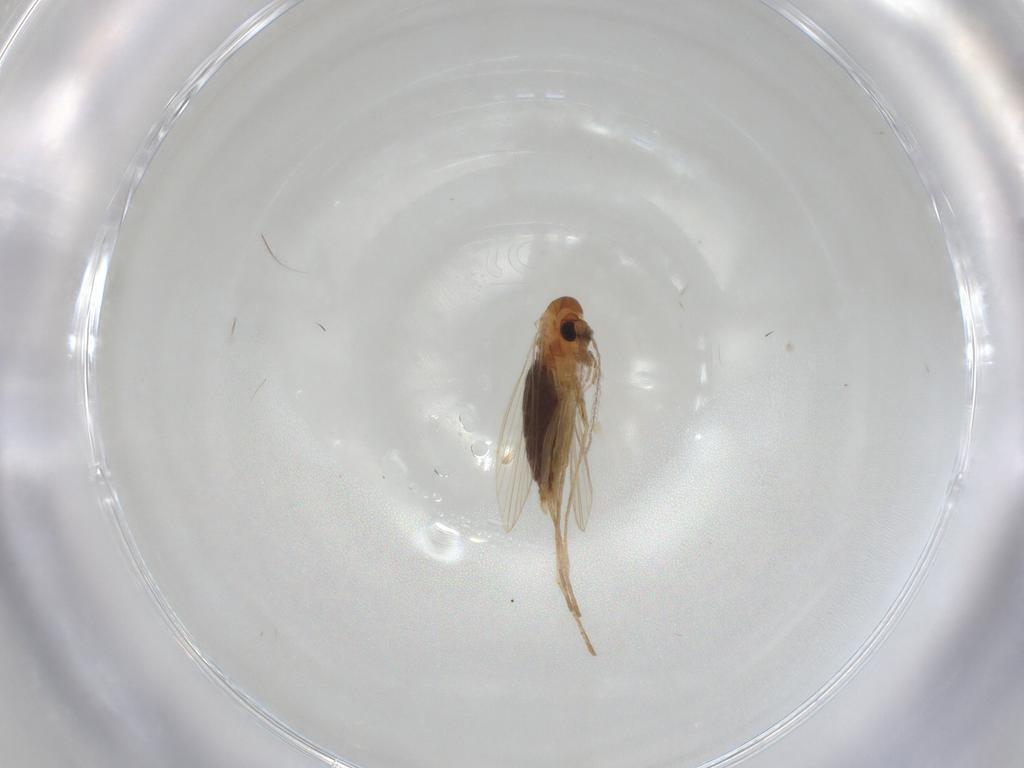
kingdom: Animalia
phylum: Arthropoda
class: Insecta
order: Diptera
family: Psychodidae
